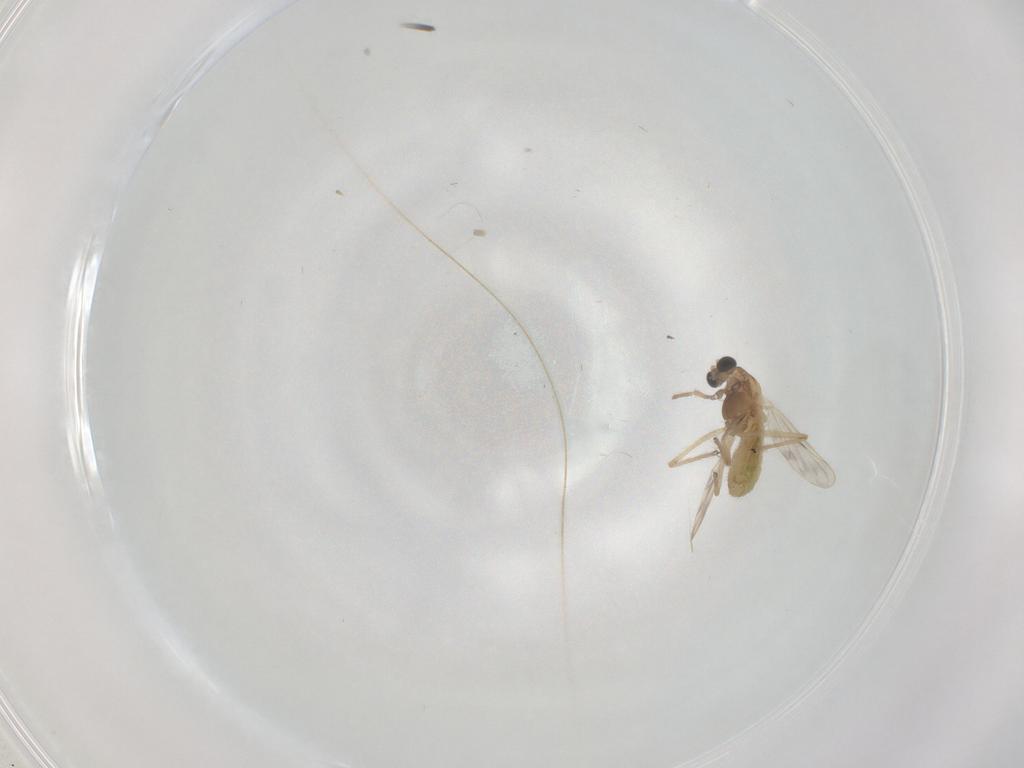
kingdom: Animalia
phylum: Arthropoda
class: Insecta
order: Diptera
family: Chironomidae
